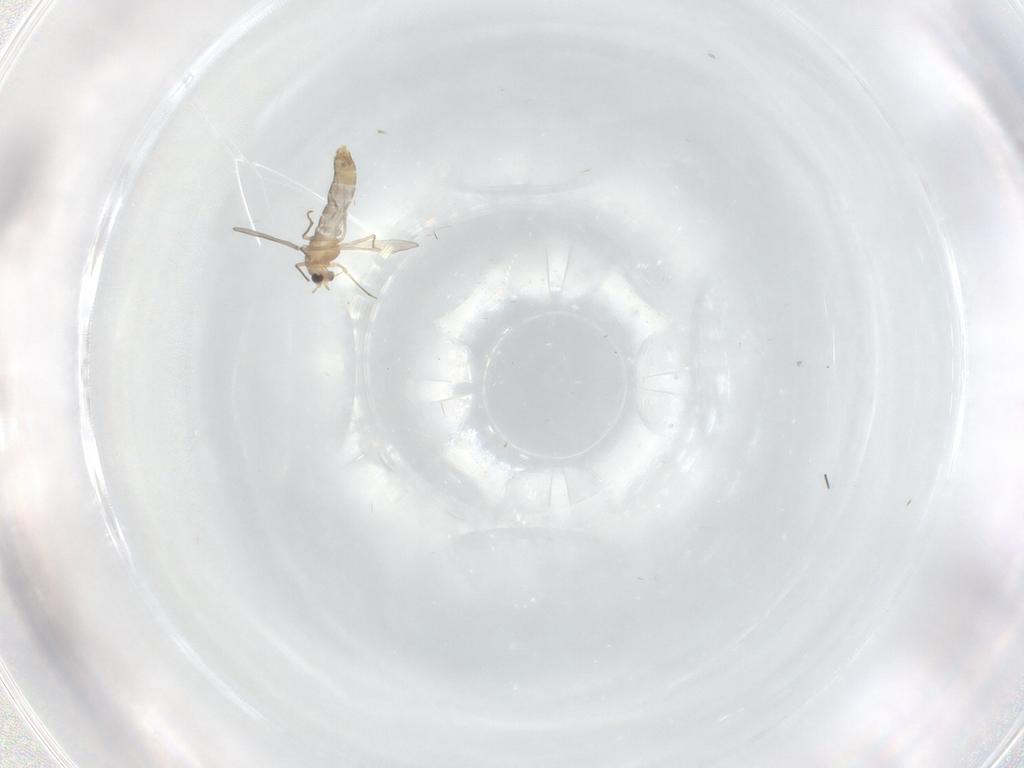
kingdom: Animalia
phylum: Arthropoda
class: Insecta
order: Diptera
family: Chironomidae
